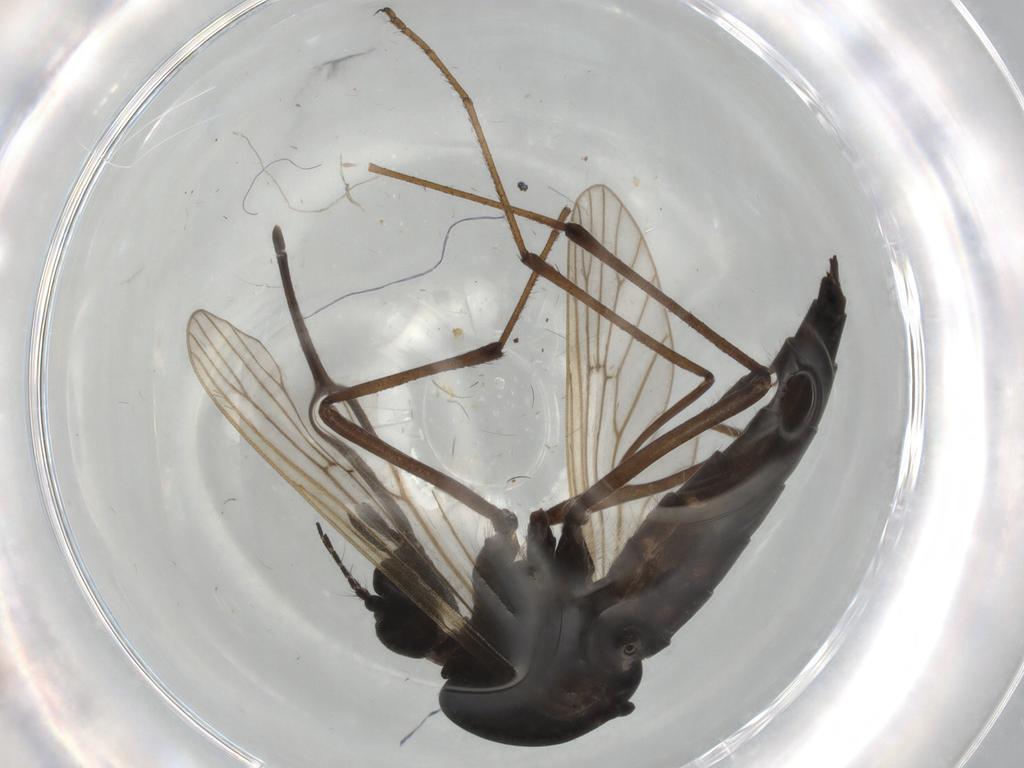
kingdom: Animalia
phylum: Arthropoda
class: Insecta
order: Diptera
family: Chironomidae
